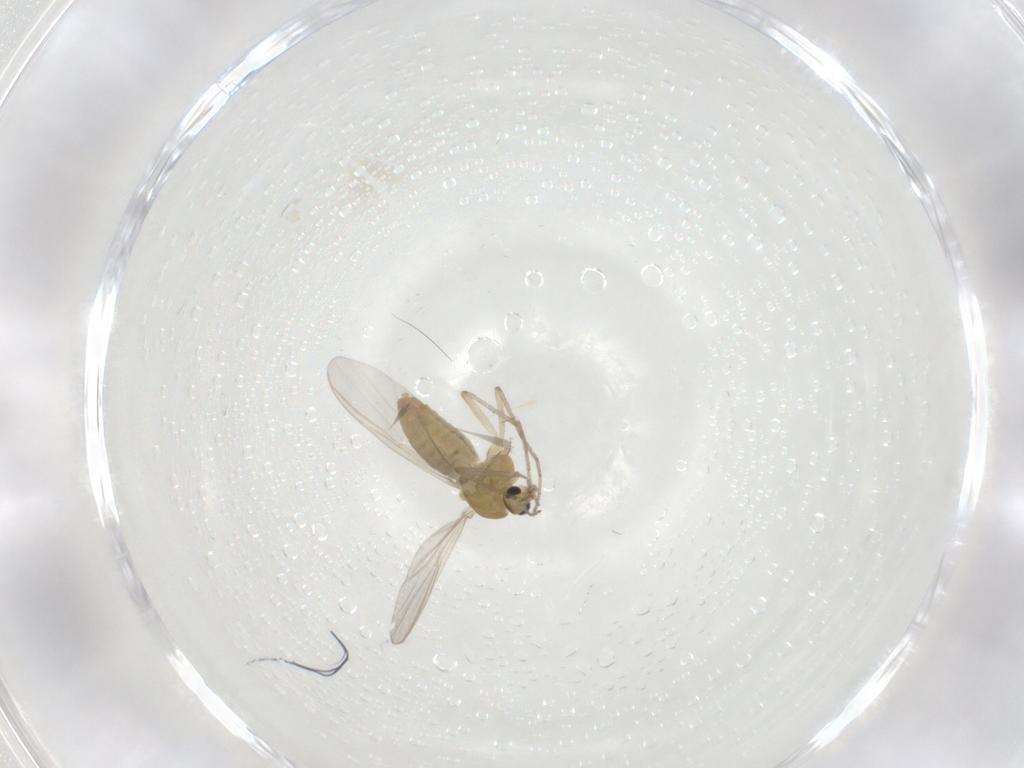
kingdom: Animalia
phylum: Arthropoda
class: Insecta
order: Diptera
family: Chironomidae
